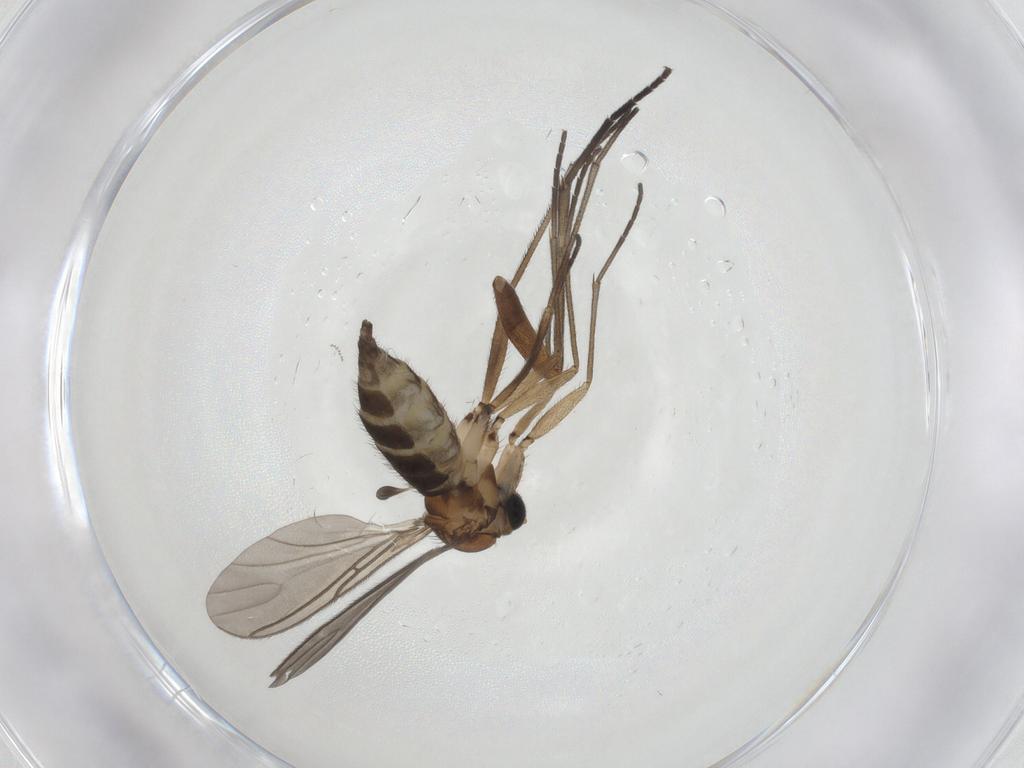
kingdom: Animalia
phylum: Arthropoda
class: Insecta
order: Diptera
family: Sciaridae
